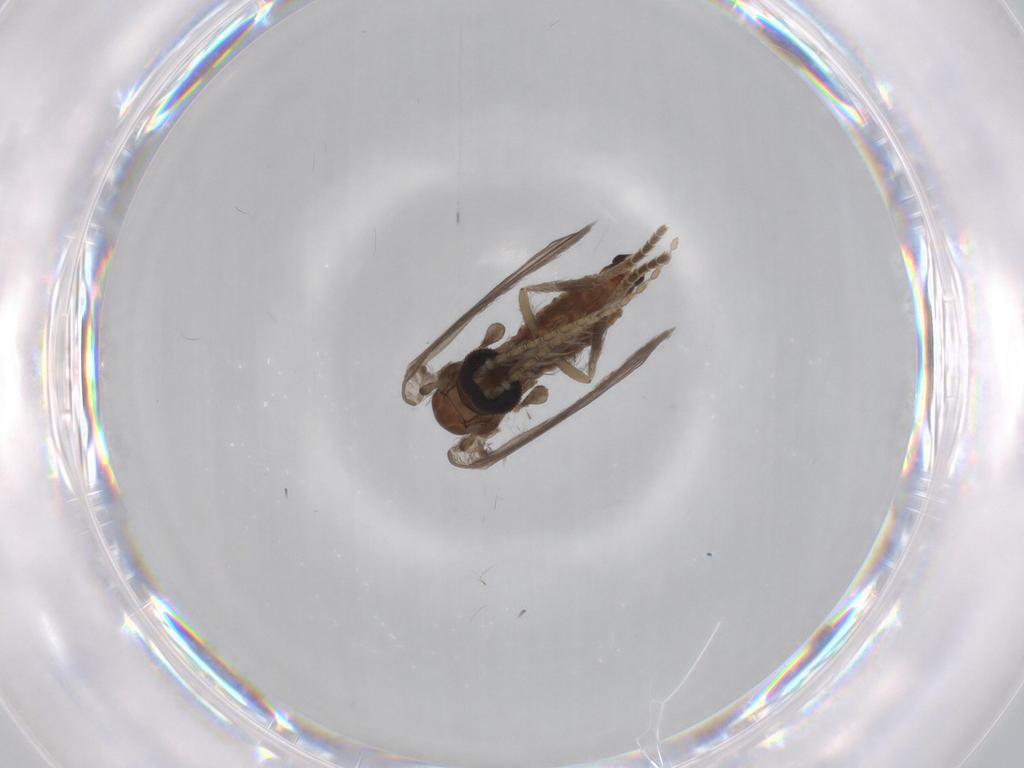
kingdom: Animalia
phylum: Arthropoda
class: Insecta
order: Diptera
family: Sciaridae
